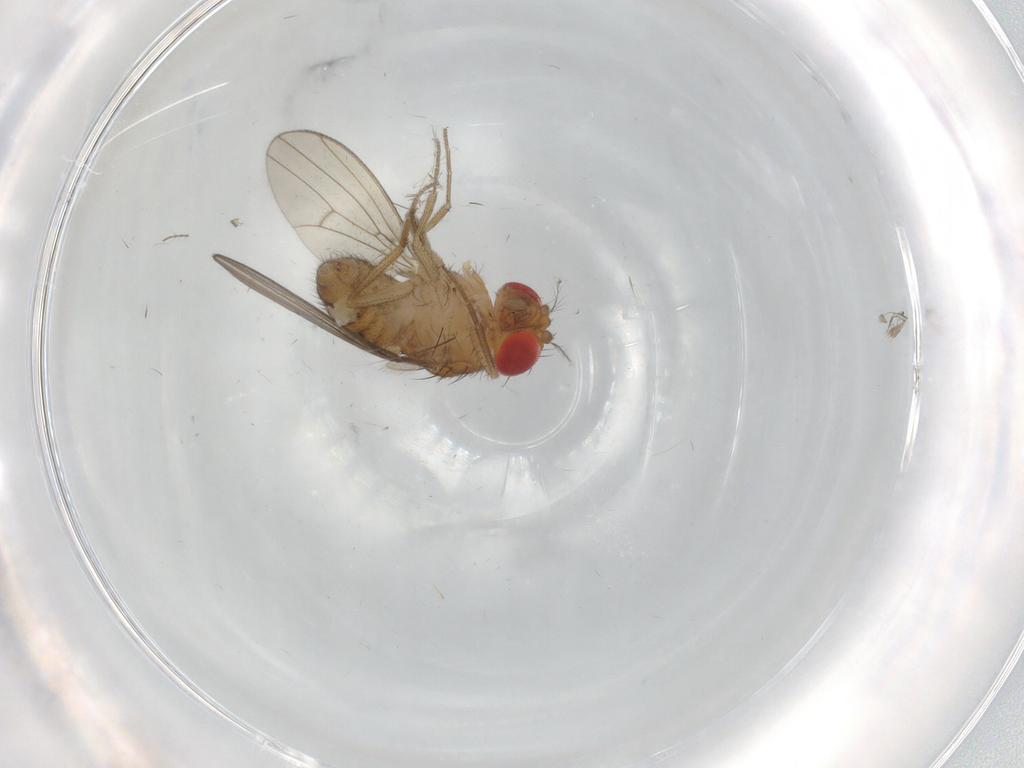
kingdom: Animalia
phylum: Arthropoda
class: Insecta
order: Diptera
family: Drosophilidae
